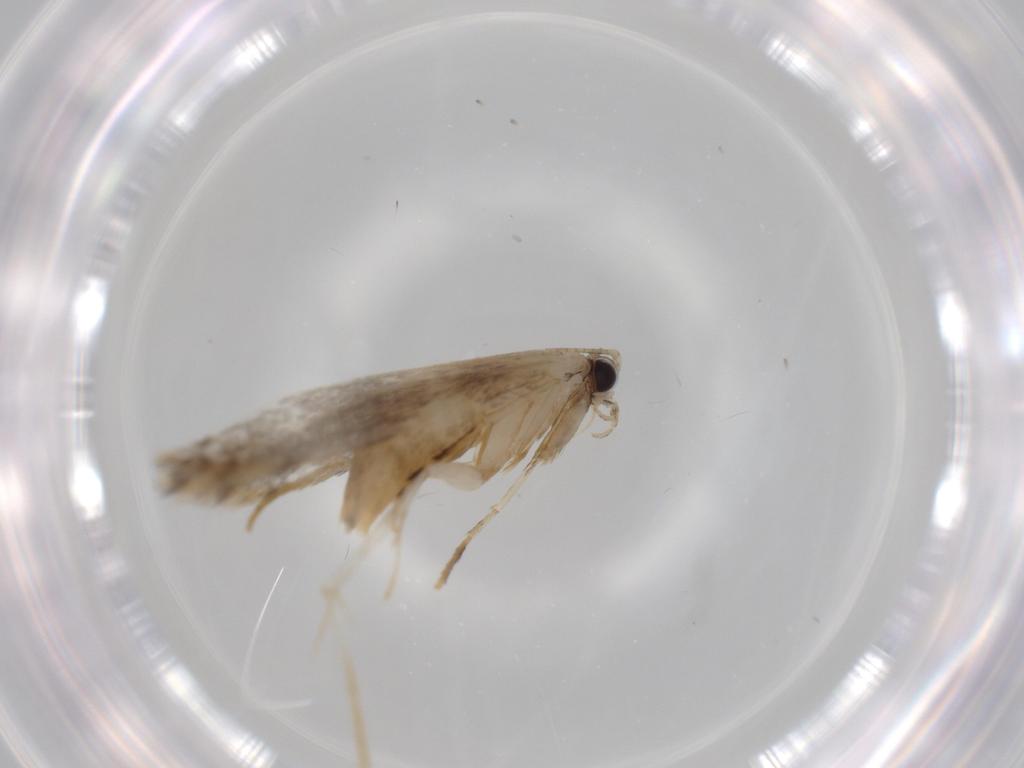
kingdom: Animalia
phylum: Arthropoda
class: Insecta
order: Lepidoptera
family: Tineidae
